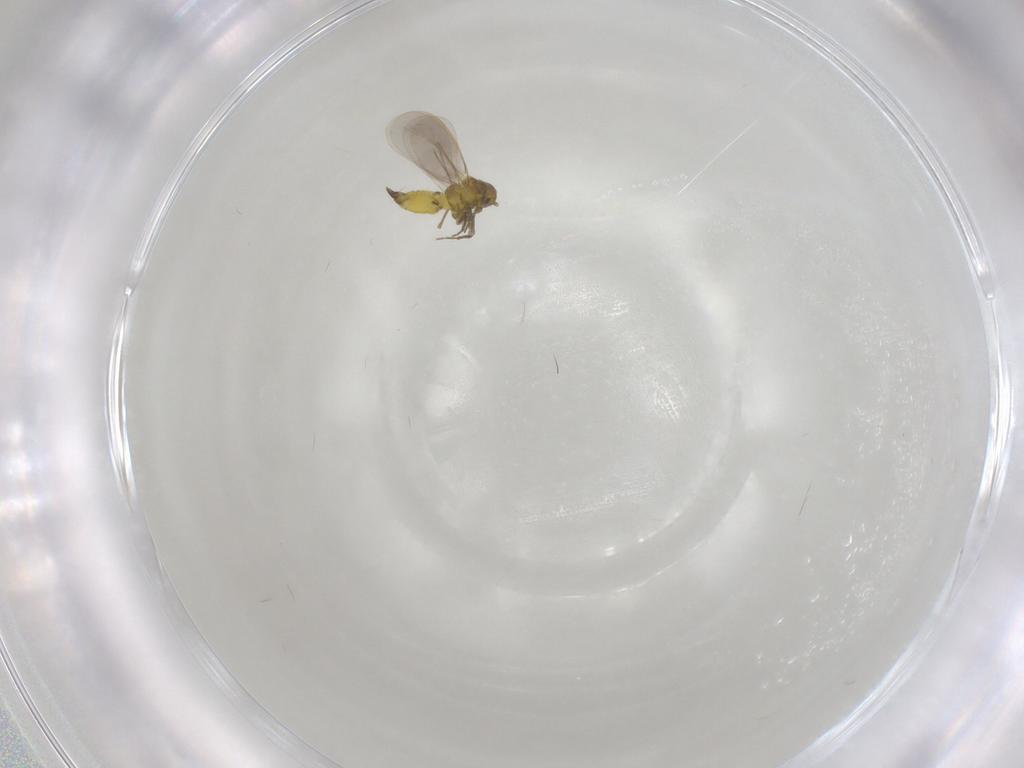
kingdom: Animalia
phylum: Arthropoda
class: Insecta
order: Hemiptera
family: Aleyrodidae
